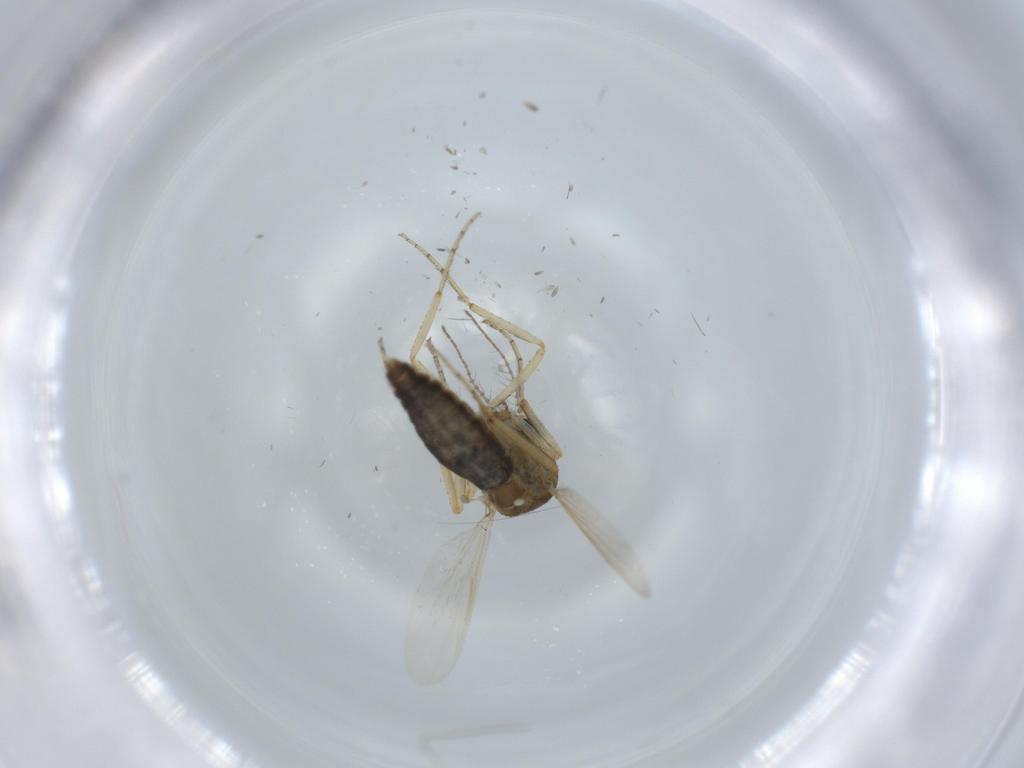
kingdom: Animalia
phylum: Arthropoda
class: Insecta
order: Diptera
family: Ceratopogonidae
